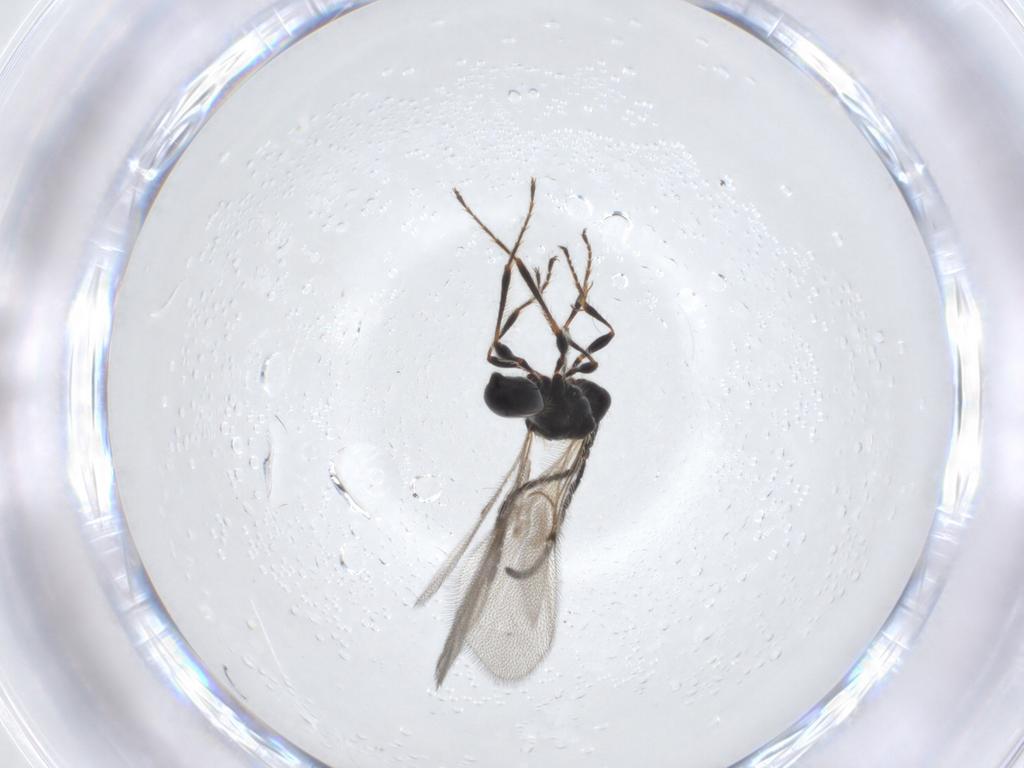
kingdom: Animalia
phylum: Arthropoda
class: Insecta
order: Hymenoptera
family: Diapriidae
